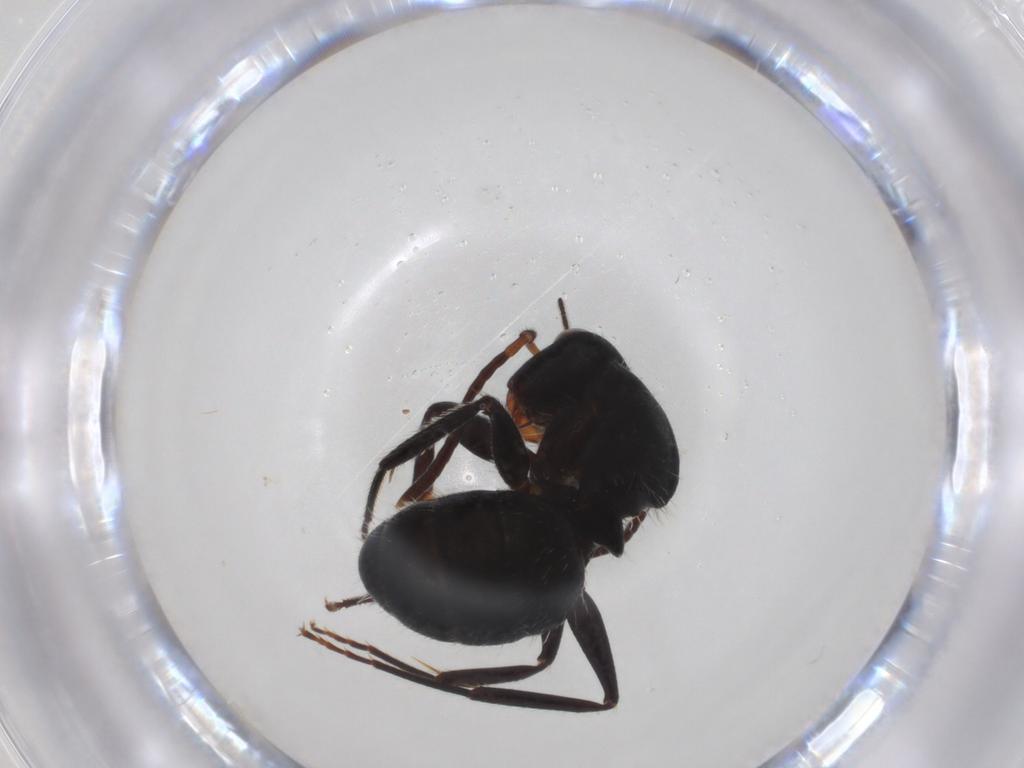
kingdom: Animalia
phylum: Arthropoda
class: Insecta
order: Hymenoptera
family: Formicidae
